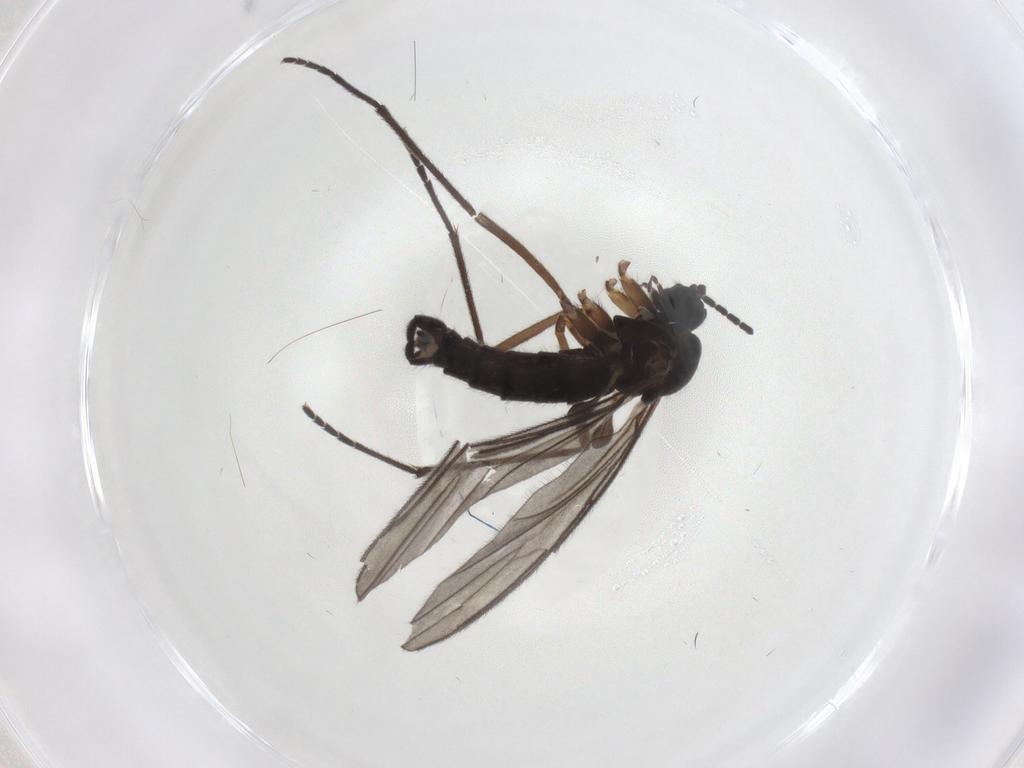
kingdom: Animalia
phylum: Arthropoda
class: Insecta
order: Diptera
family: Sciaridae
